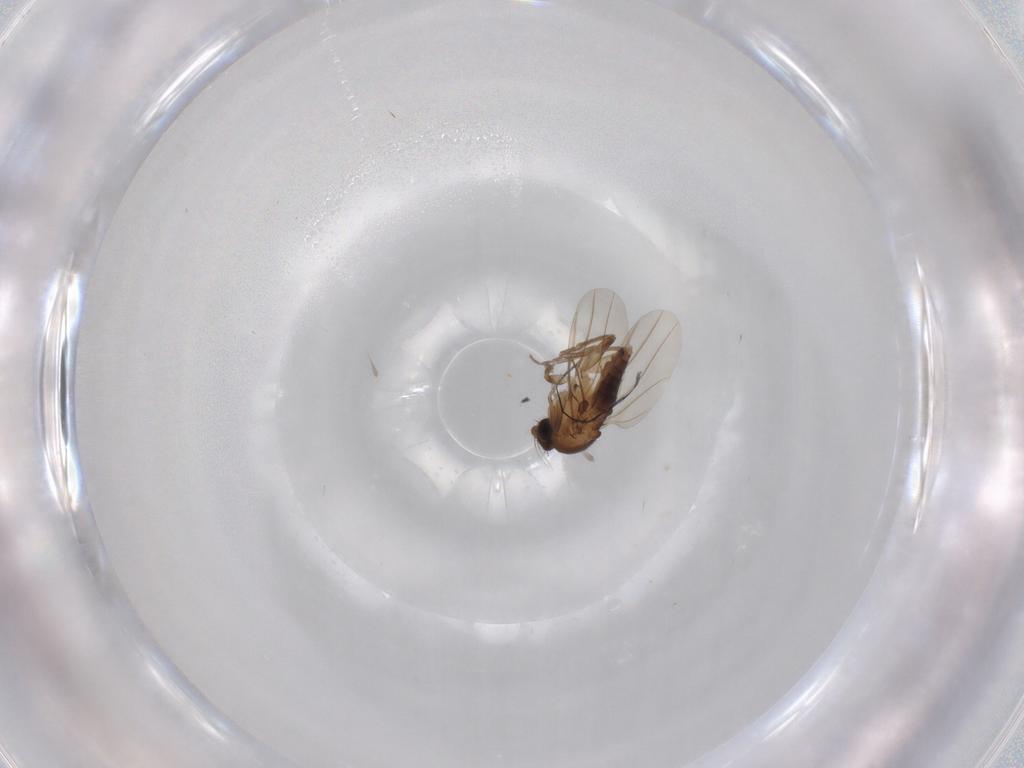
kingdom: Animalia
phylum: Arthropoda
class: Insecta
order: Diptera
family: Phoridae
